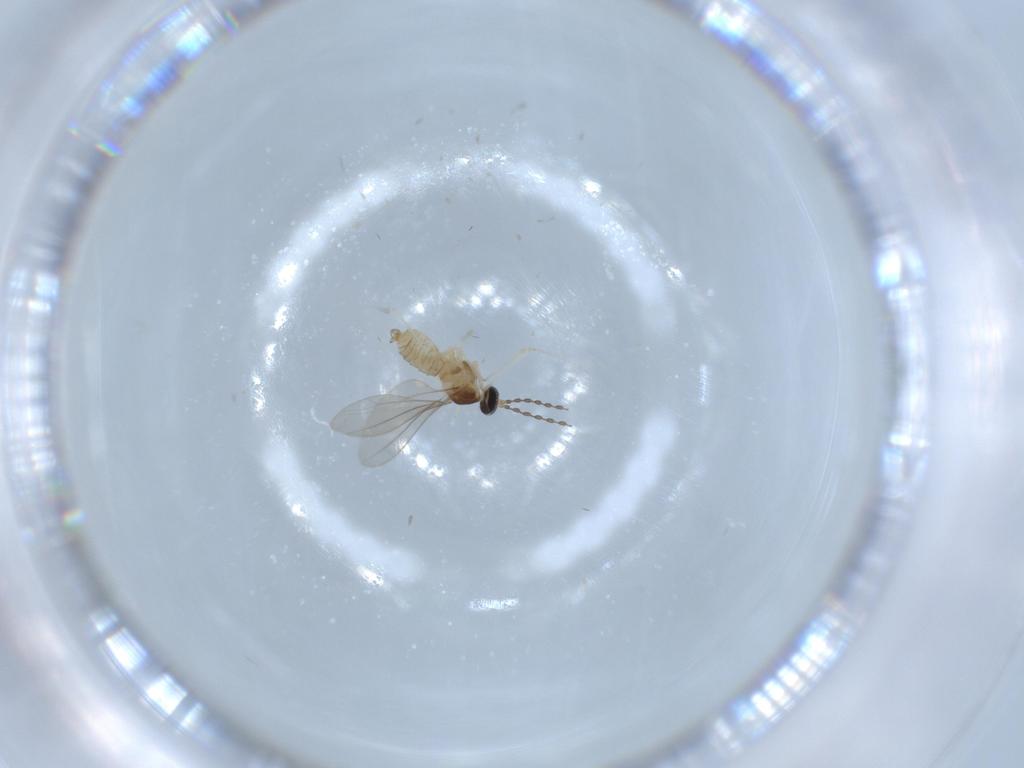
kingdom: Animalia
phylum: Arthropoda
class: Insecta
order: Diptera
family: Cecidomyiidae
